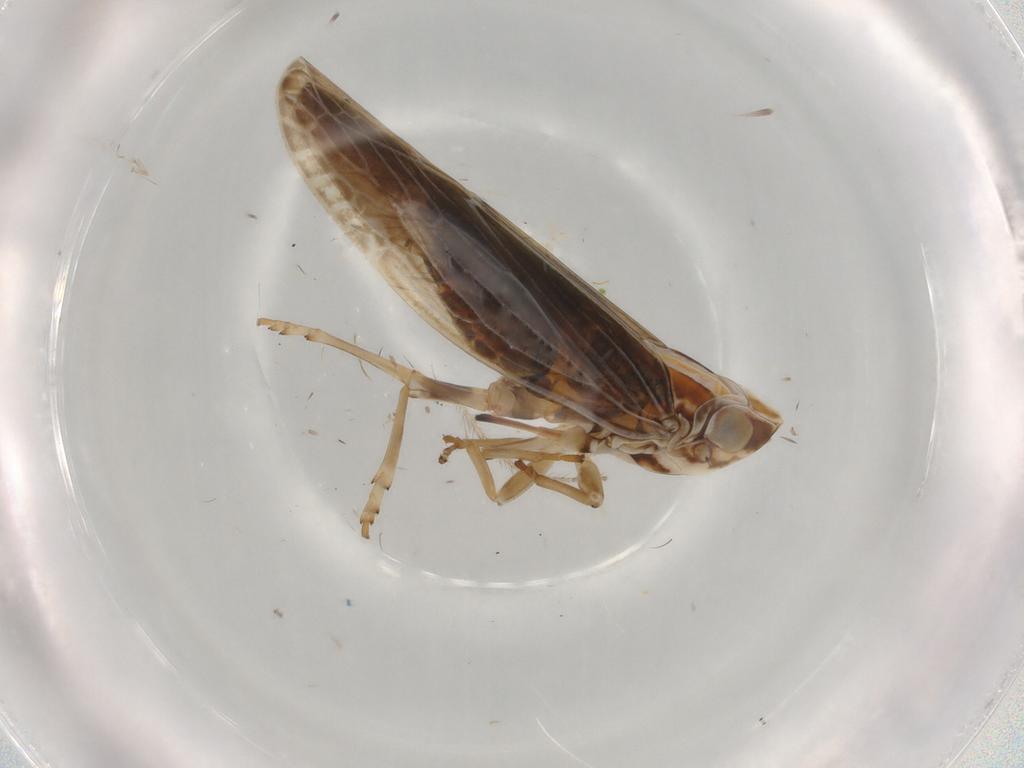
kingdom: Animalia
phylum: Arthropoda
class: Insecta
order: Hemiptera
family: Achilidae
